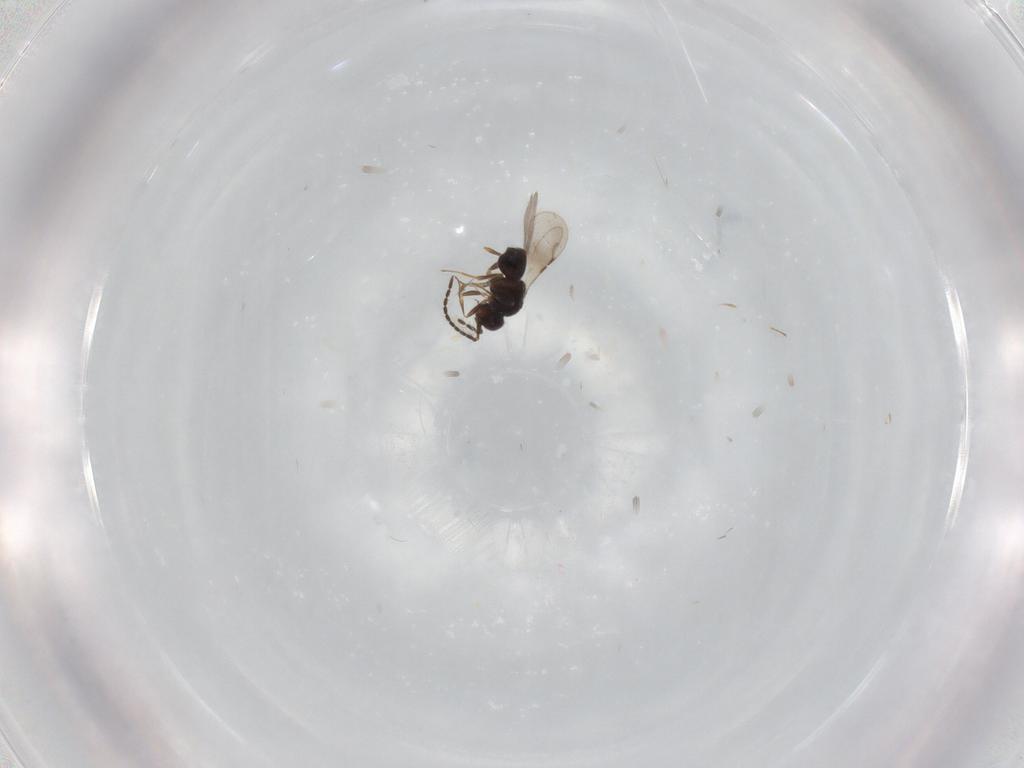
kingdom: Animalia
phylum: Arthropoda
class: Insecta
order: Hymenoptera
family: Ceraphronidae
